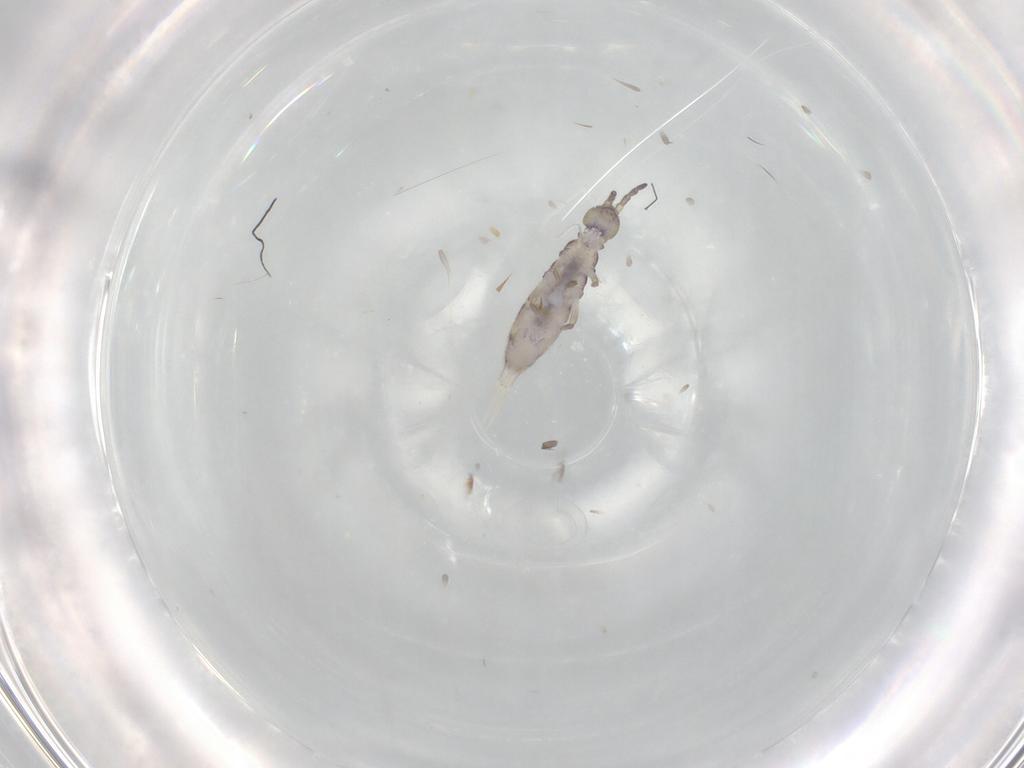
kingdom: Animalia
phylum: Arthropoda
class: Collembola
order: Entomobryomorpha
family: Isotomidae
